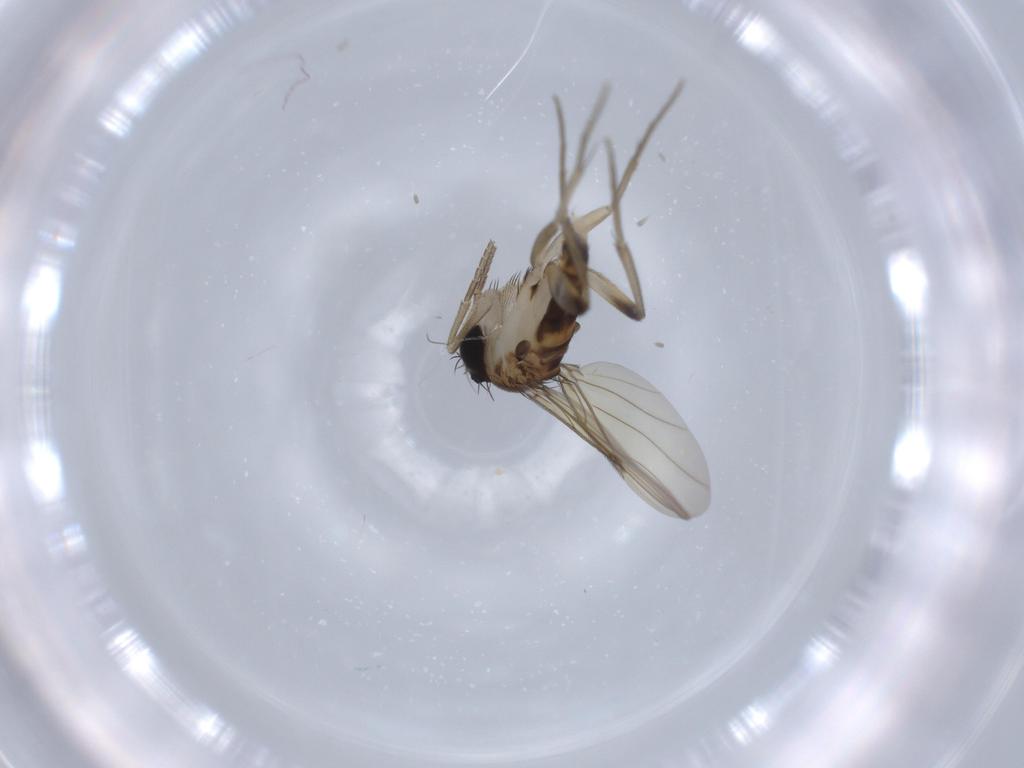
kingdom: Animalia
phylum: Arthropoda
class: Insecta
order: Diptera
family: Phoridae
